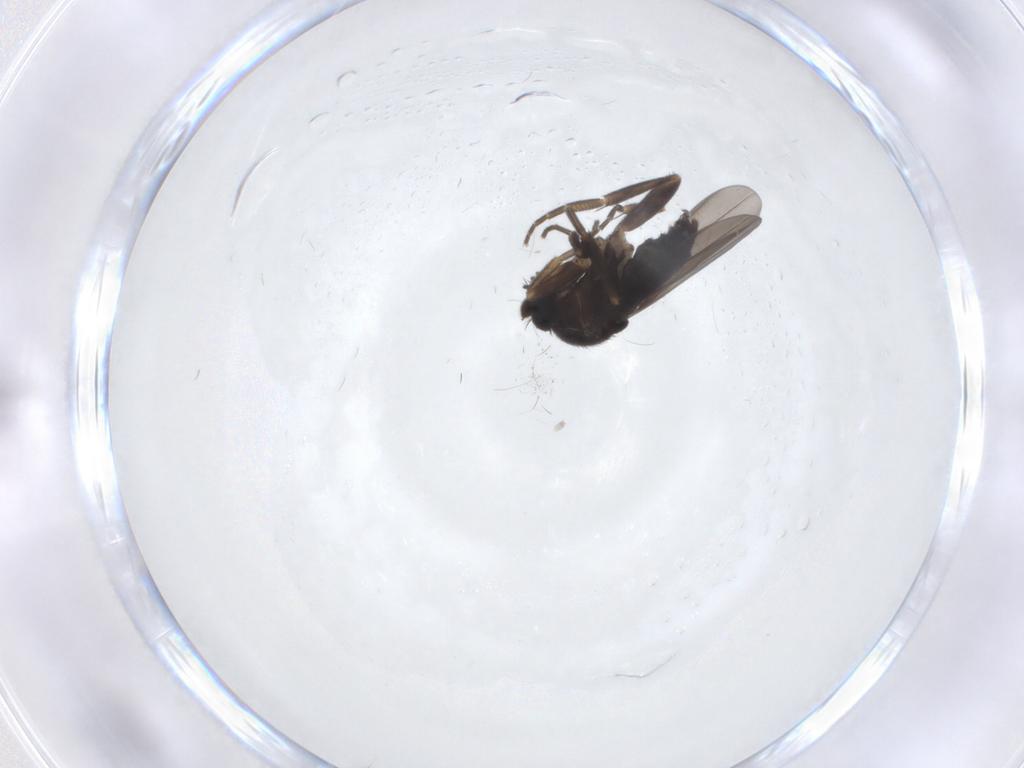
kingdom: Animalia
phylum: Arthropoda
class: Insecta
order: Diptera
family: Phoridae
